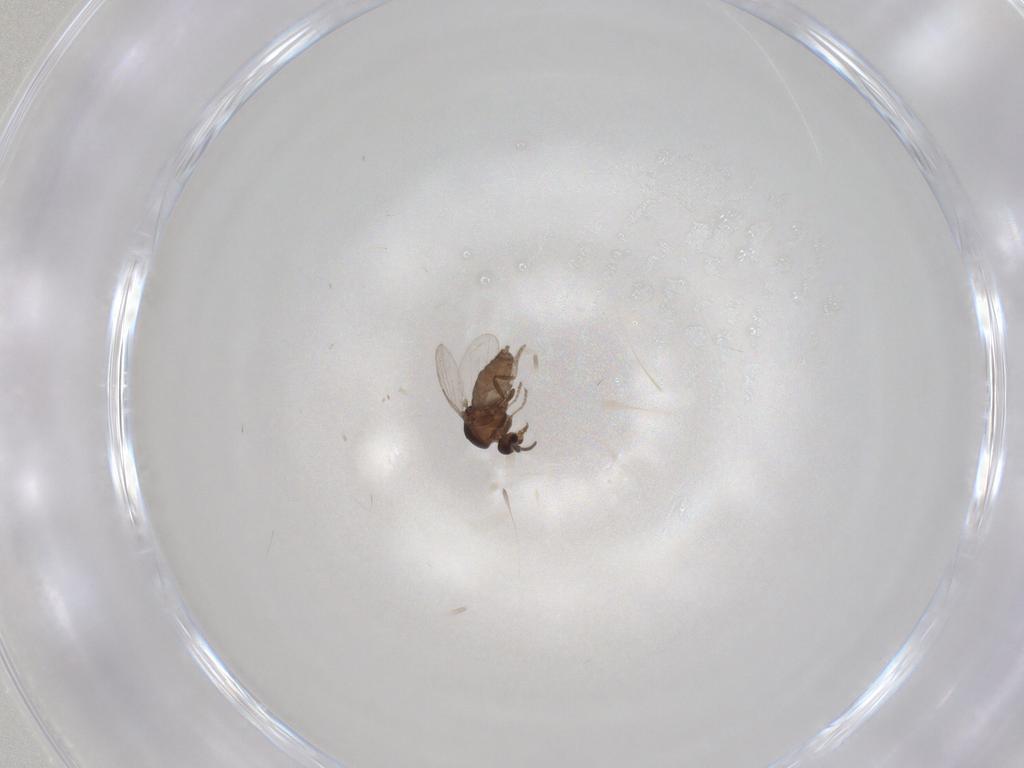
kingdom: Animalia
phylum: Arthropoda
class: Insecta
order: Diptera
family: Ceratopogonidae
